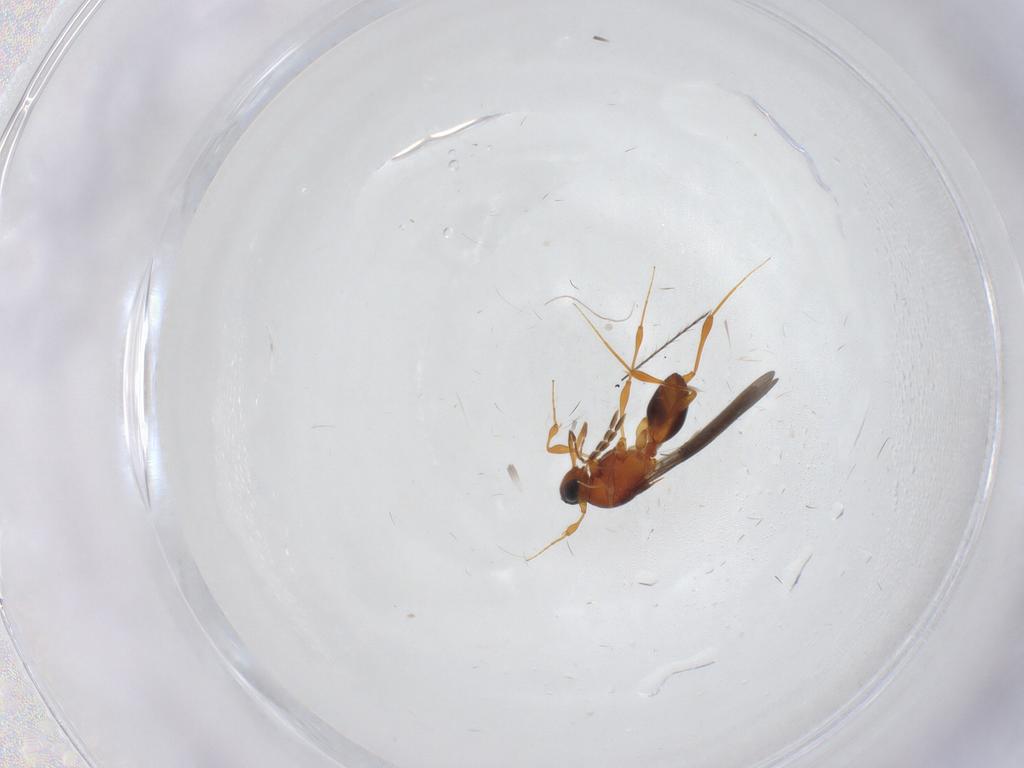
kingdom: Animalia
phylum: Arthropoda
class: Insecta
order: Hymenoptera
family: Platygastridae
